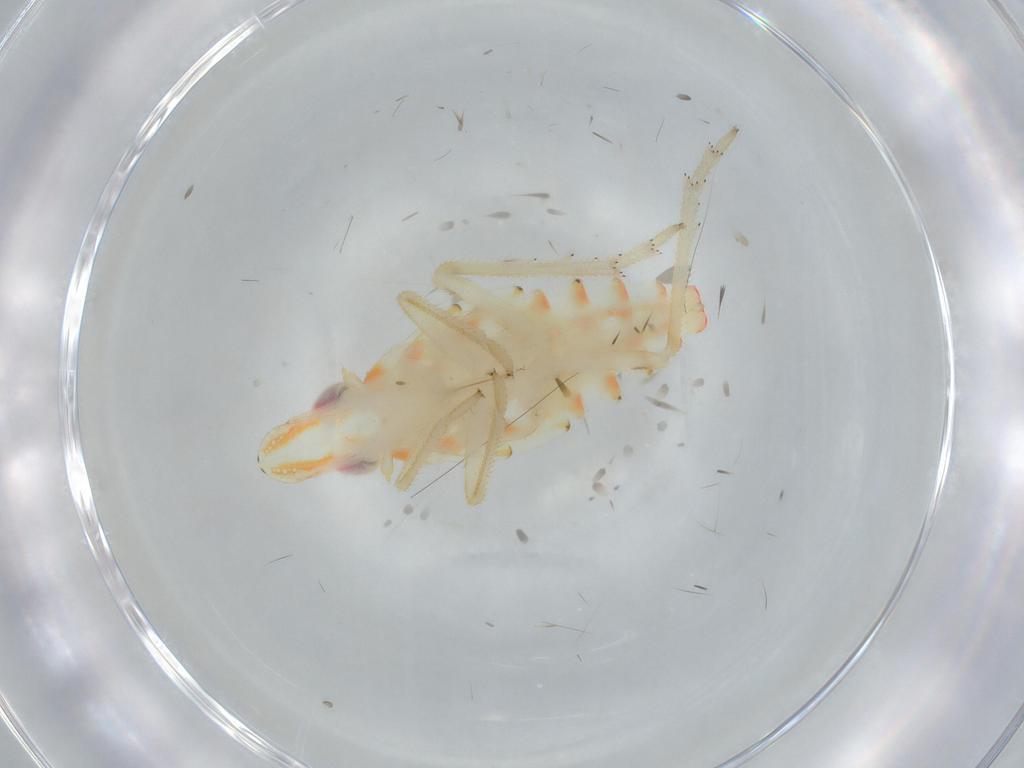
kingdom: Animalia
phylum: Arthropoda
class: Insecta
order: Hemiptera
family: Tropiduchidae
